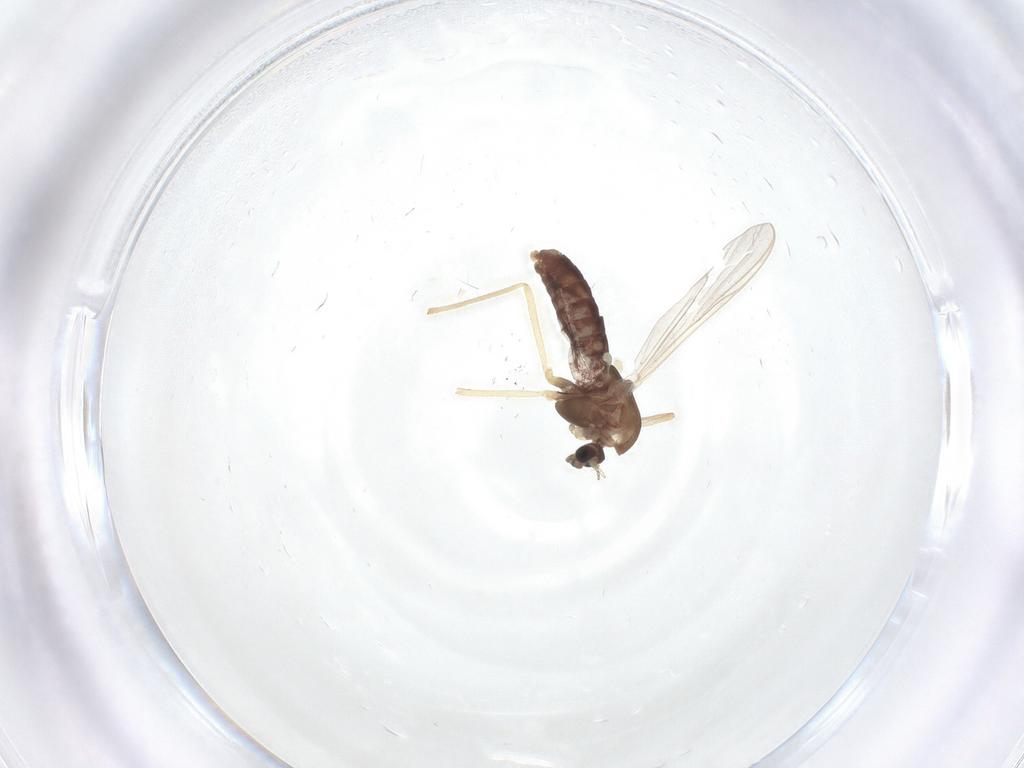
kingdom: Animalia
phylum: Arthropoda
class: Insecta
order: Diptera
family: Chironomidae
